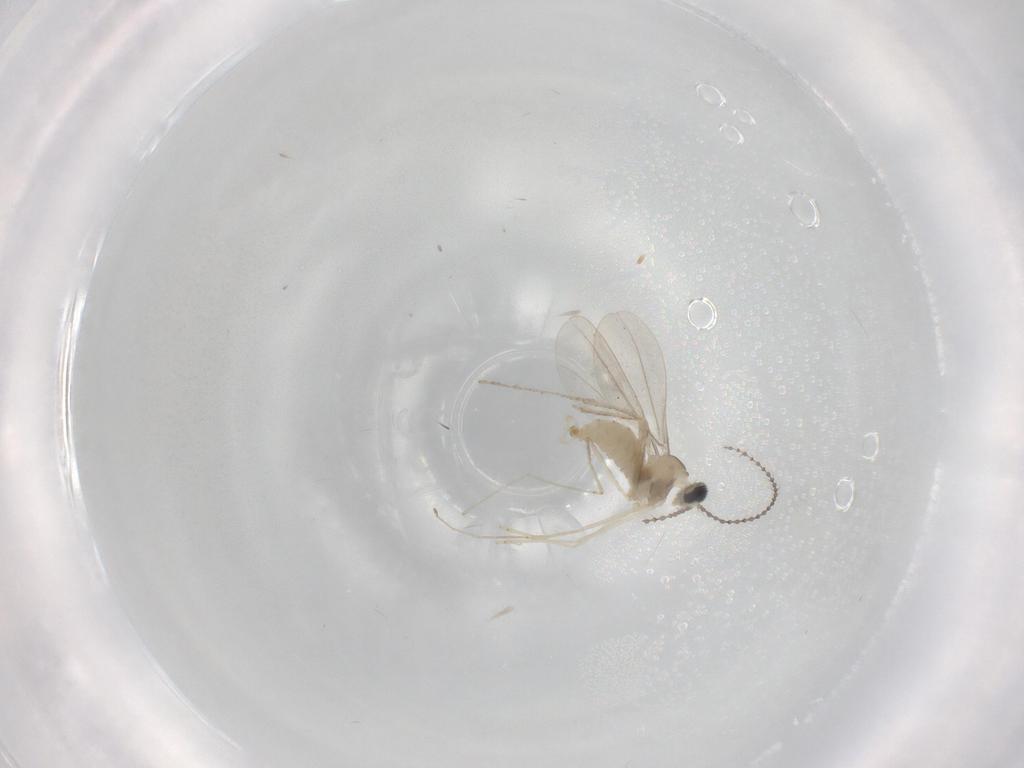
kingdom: Animalia
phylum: Arthropoda
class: Insecta
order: Diptera
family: Cecidomyiidae
